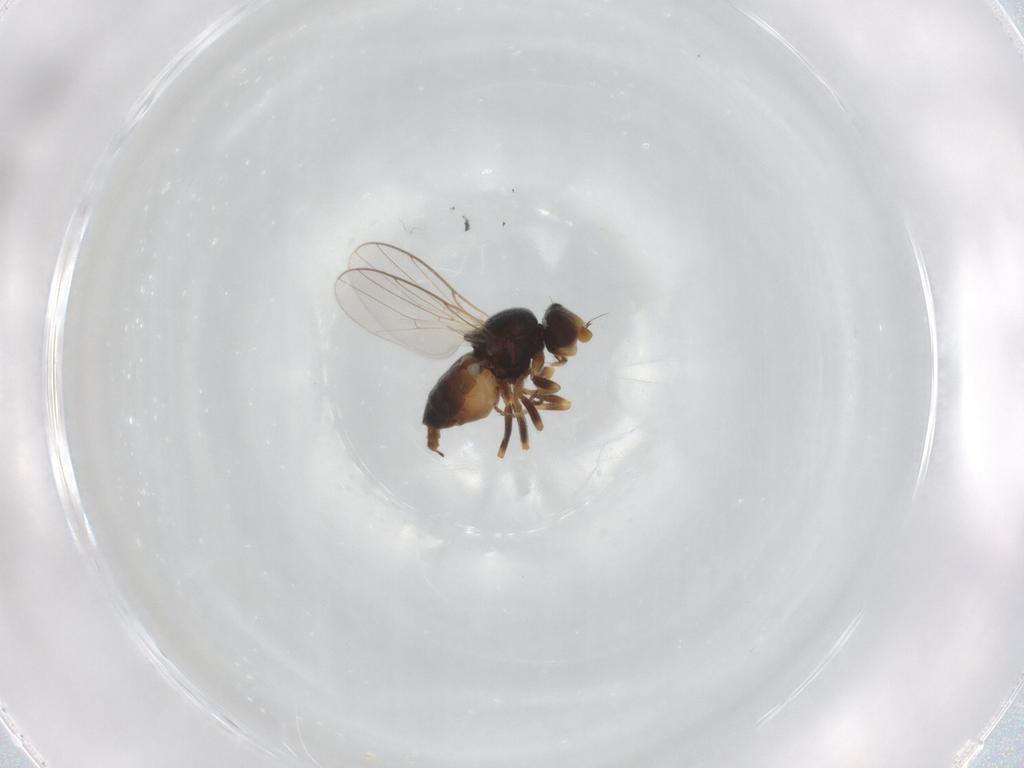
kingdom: Animalia
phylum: Arthropoda
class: Insecta
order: Diptera
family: Chloropidae
